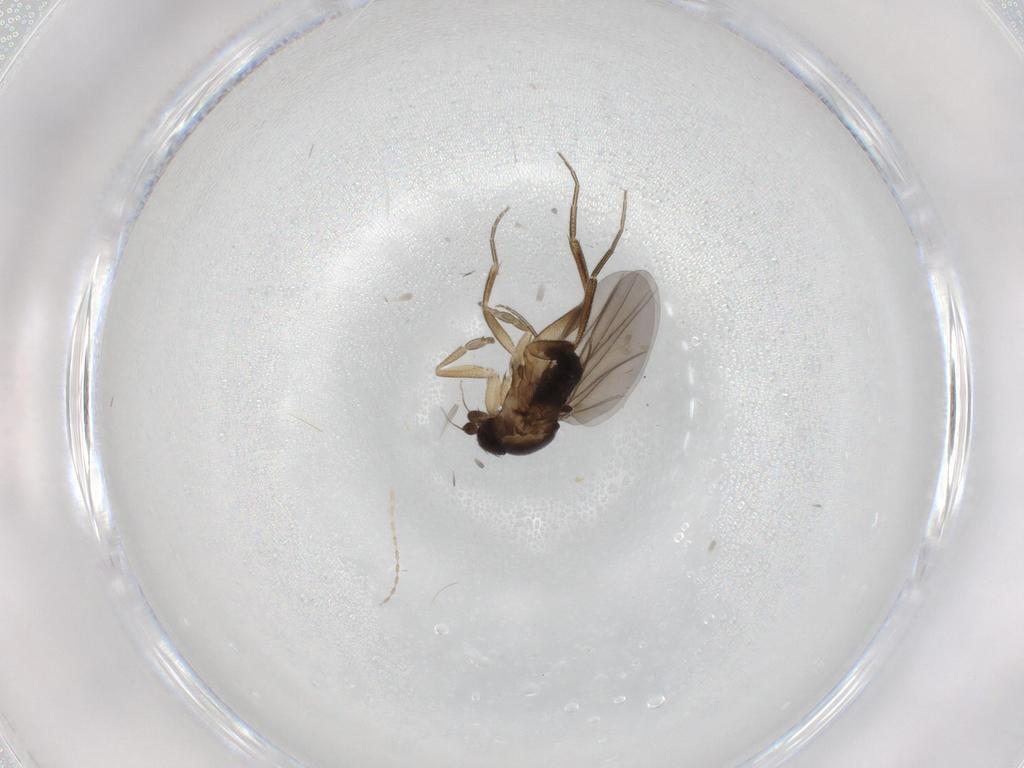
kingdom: Animalia
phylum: Arthropoda
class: Insecta
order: Diptera
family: Phoridae
